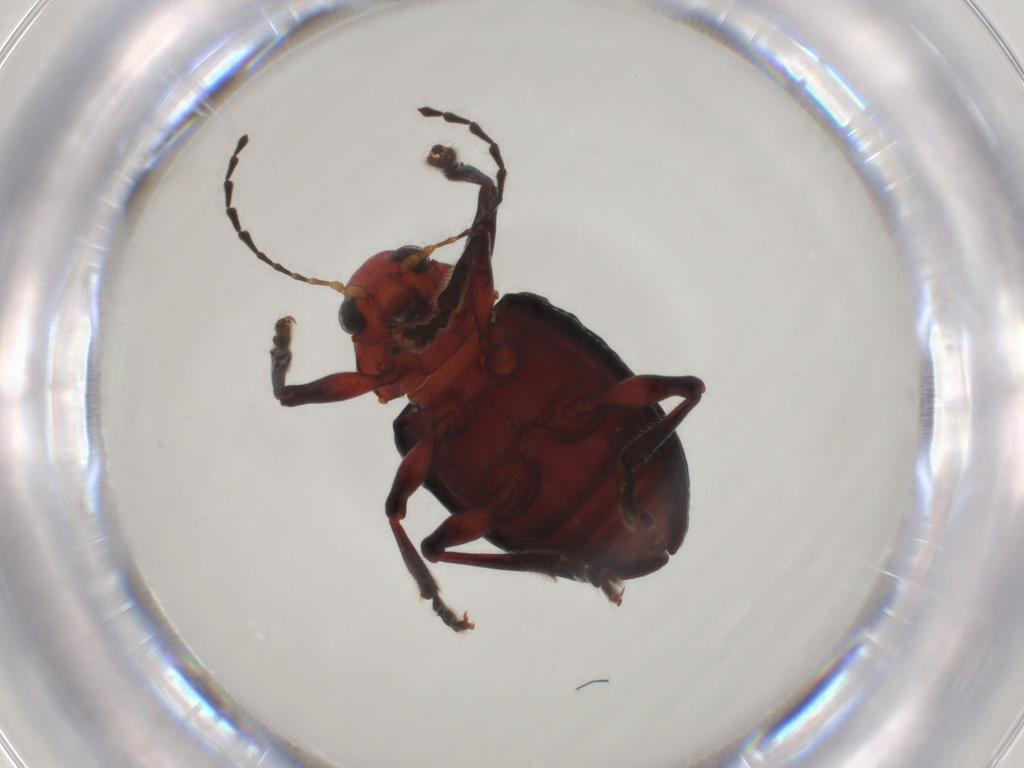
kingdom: Animalia
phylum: Arthropoda
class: Insecta
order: Coleoptera
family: Chrysomelidae
